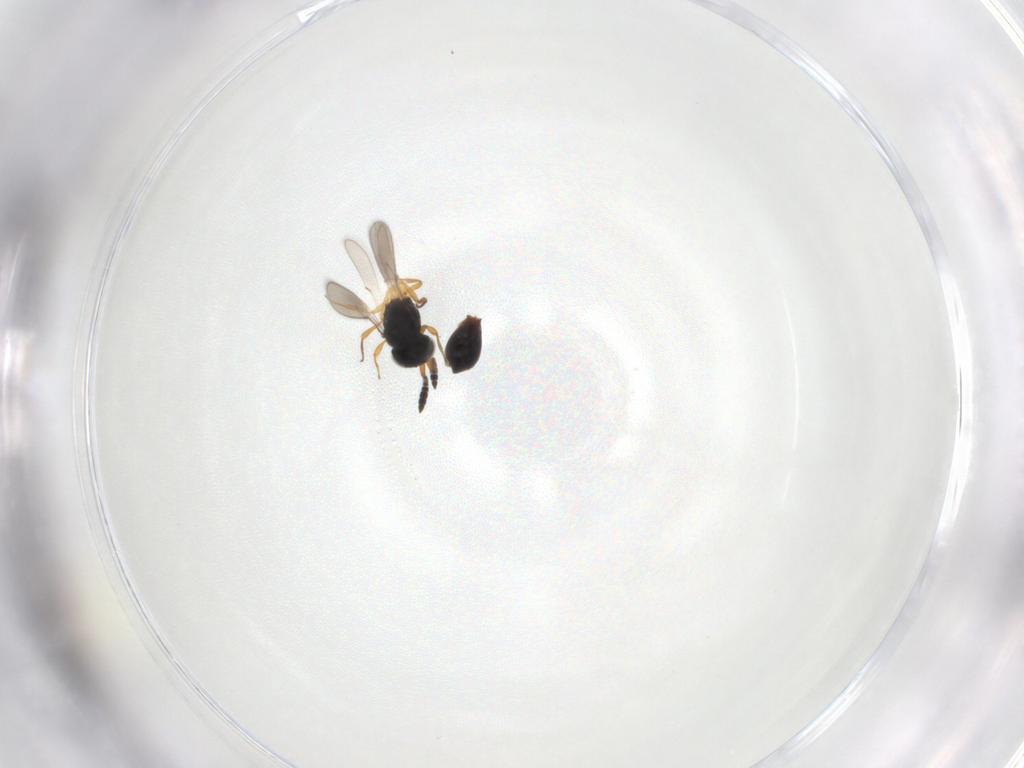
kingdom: Animalia
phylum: Arthropoda
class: Insecta
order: Hymenoptera
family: Scelionidae
